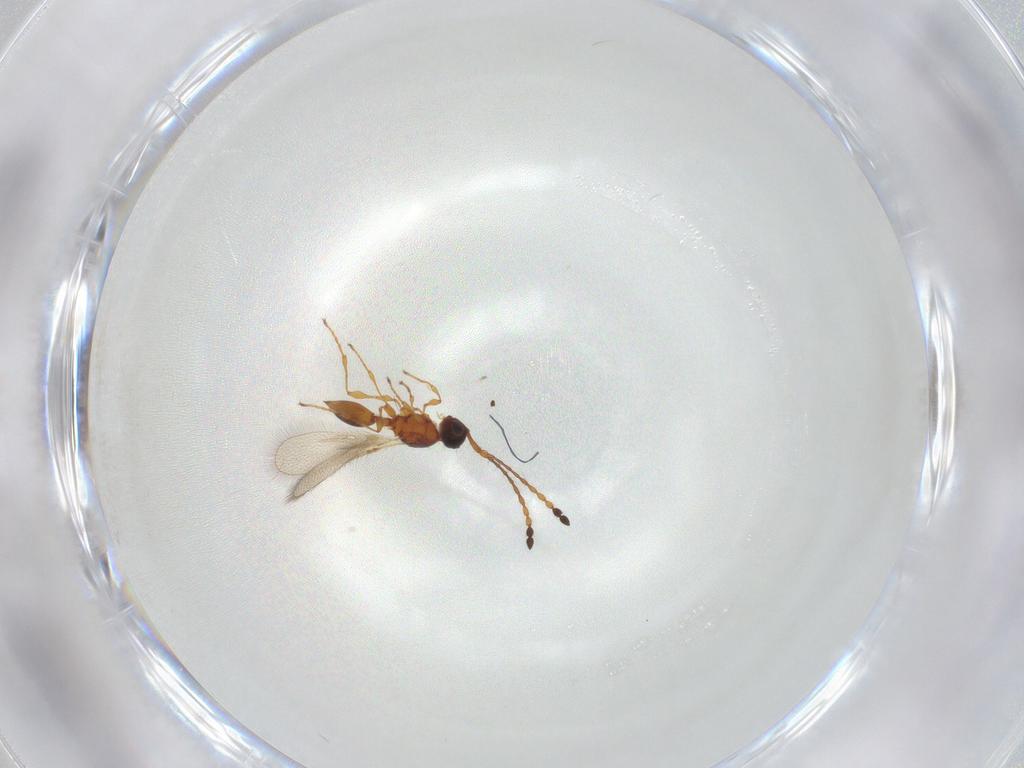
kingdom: Animalia
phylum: Arthropoda
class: Insecta
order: Hymenoptera
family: Diapriidae
